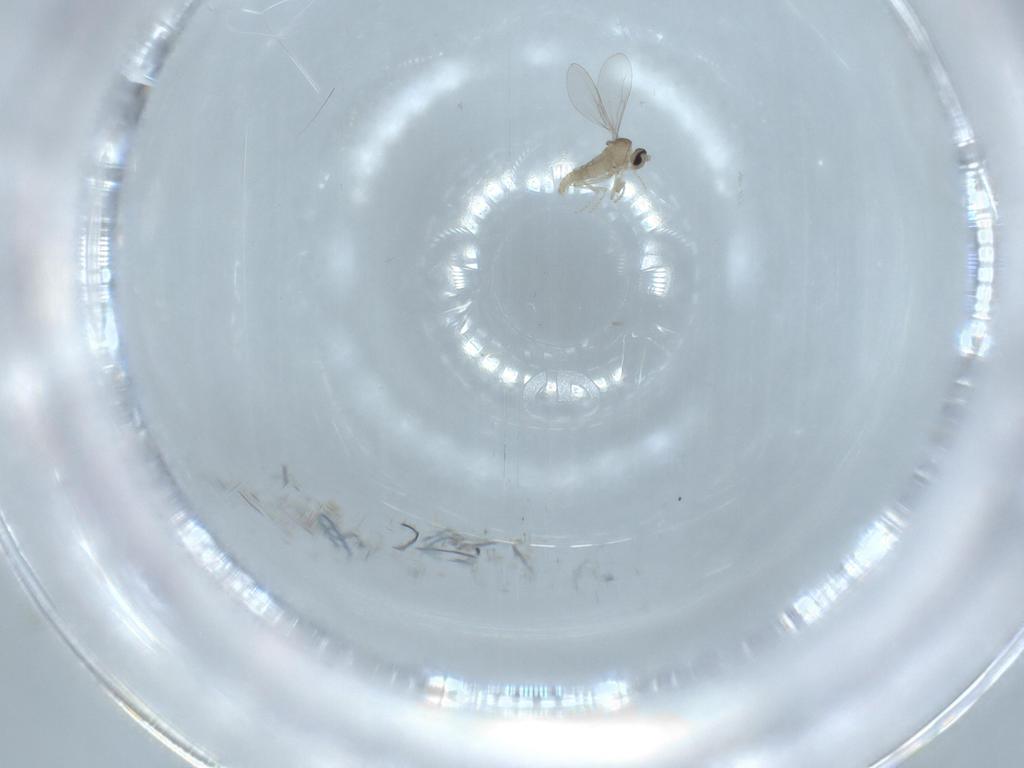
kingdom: Animalia
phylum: Arthropoda
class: Insecta
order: Diptera
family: Cecidomyiidae
